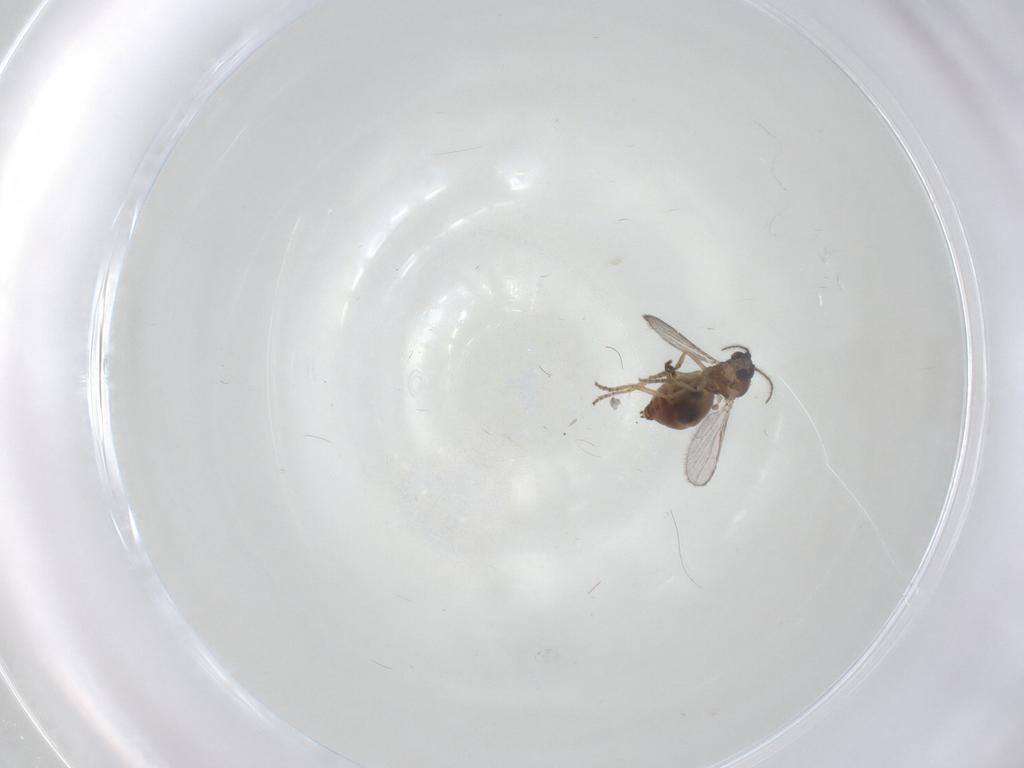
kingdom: Animalia
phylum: Arthropoda
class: Insecta
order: Diptera
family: Ceratopogonidae
